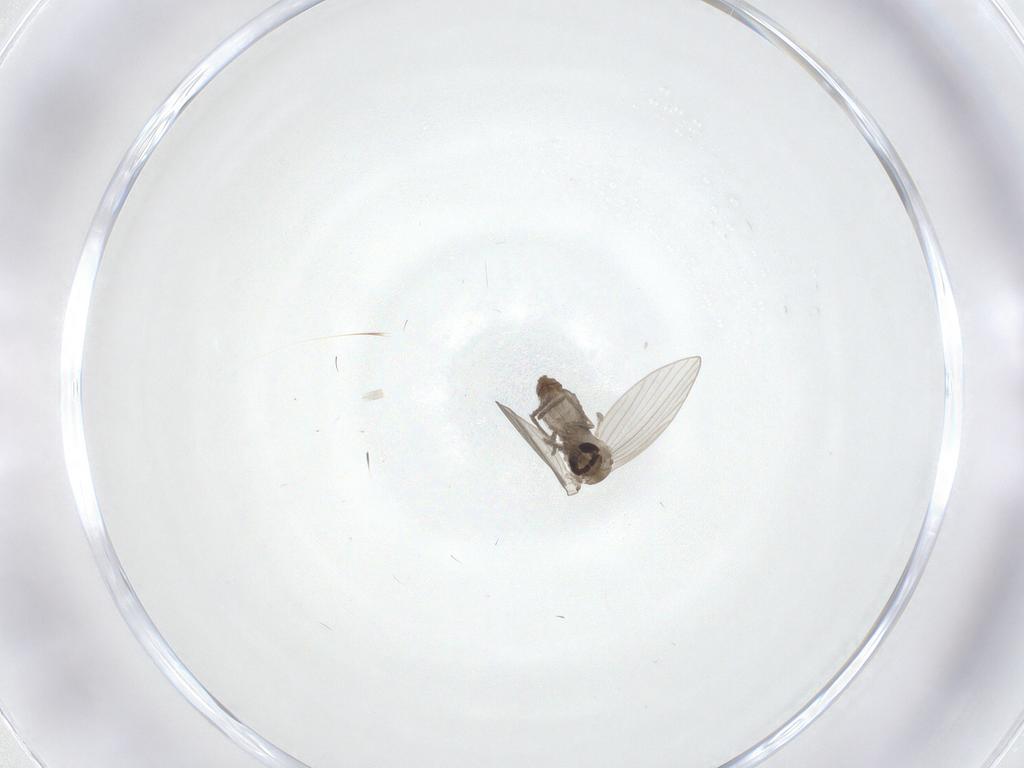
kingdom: Animalia
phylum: Arthropoda
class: Insecta
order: Diptera
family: Psychodidae
